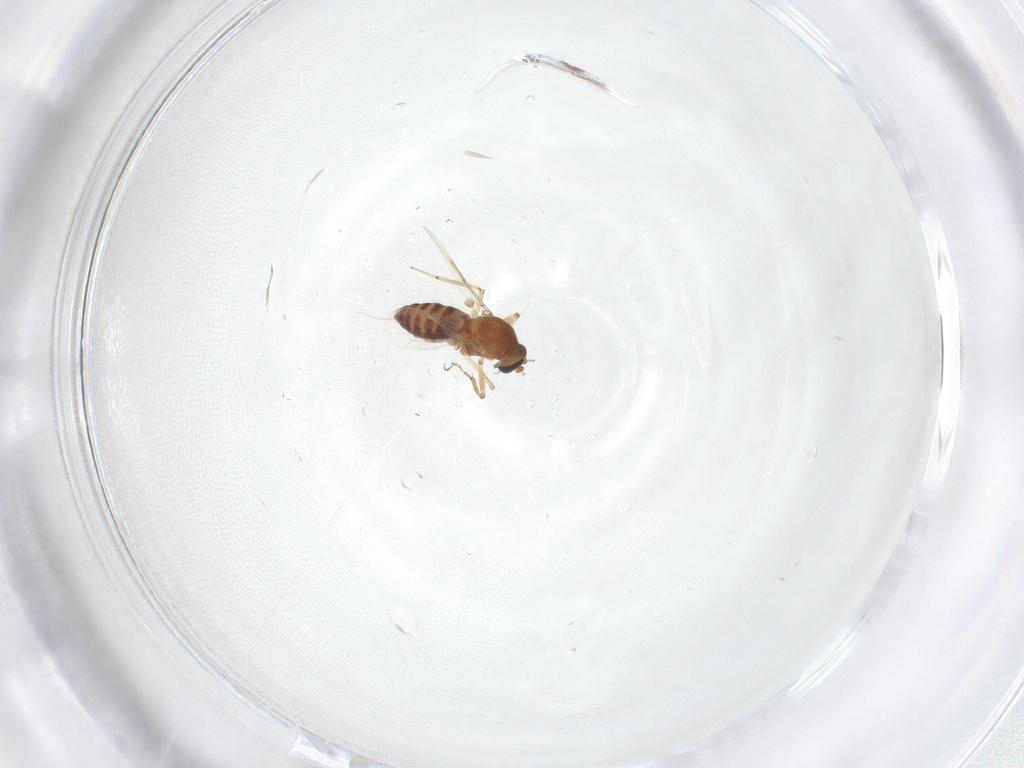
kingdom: Animalia
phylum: Arthropoda
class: Insecta
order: Diptera
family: Ceratopogonidae
